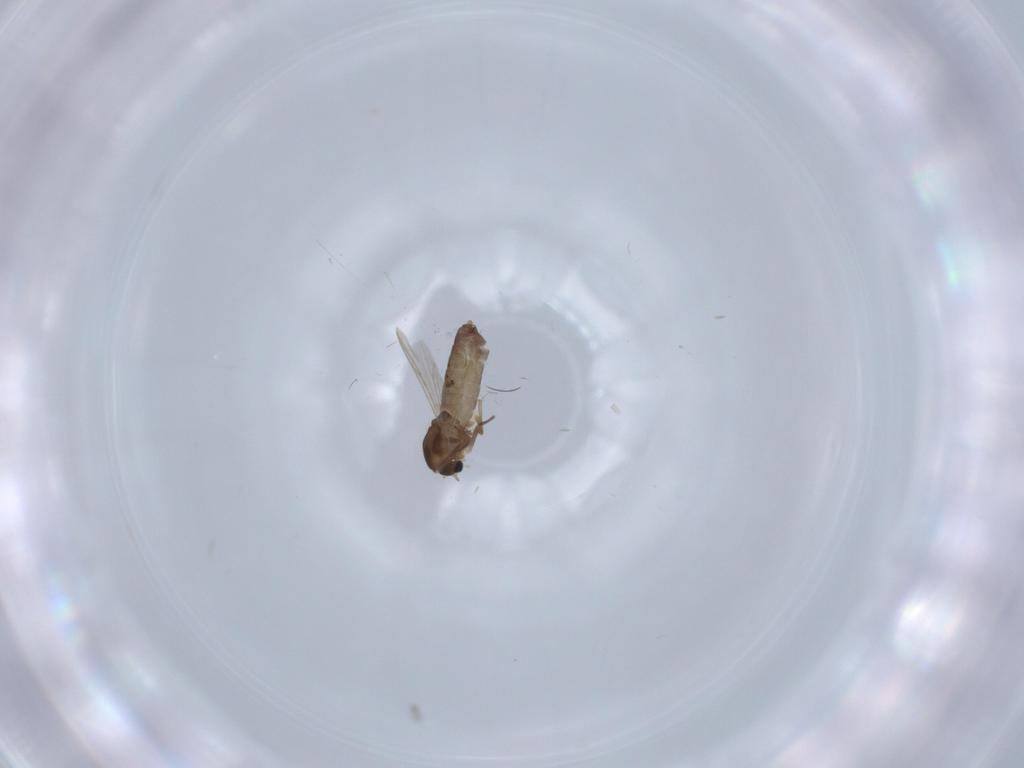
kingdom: Animalia
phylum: Arthropoda
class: Insecta
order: Diptera
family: Chironomidae
